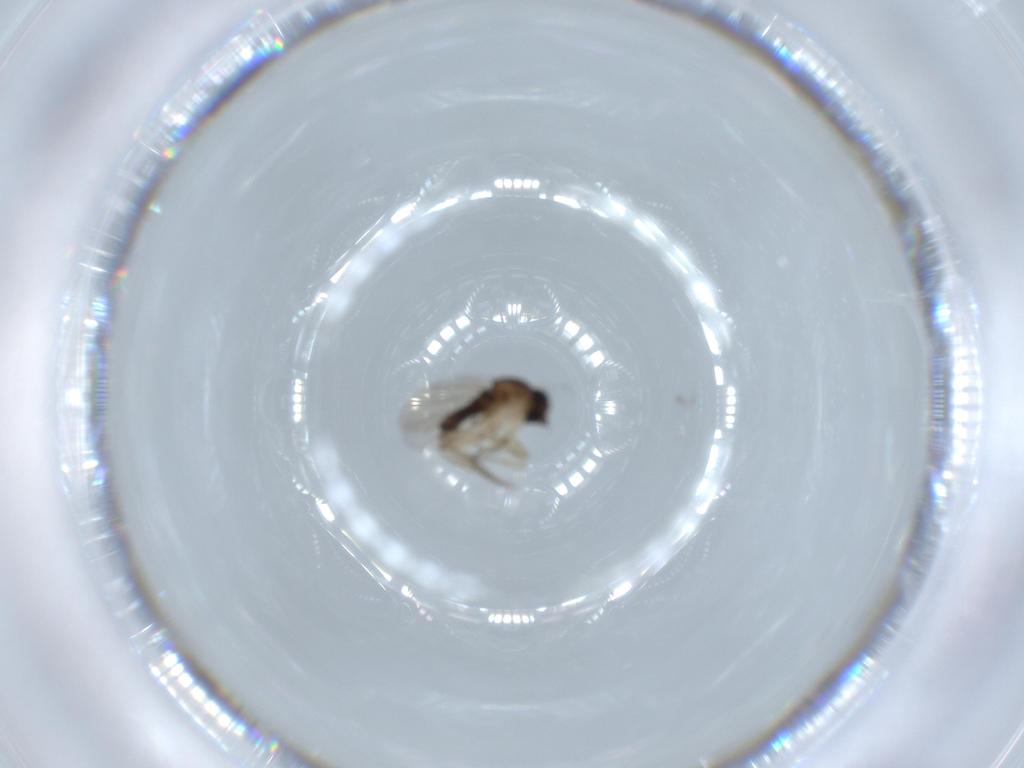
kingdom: Animalia
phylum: Arthropoda
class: Insecta
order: Diptera
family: Phoridae
